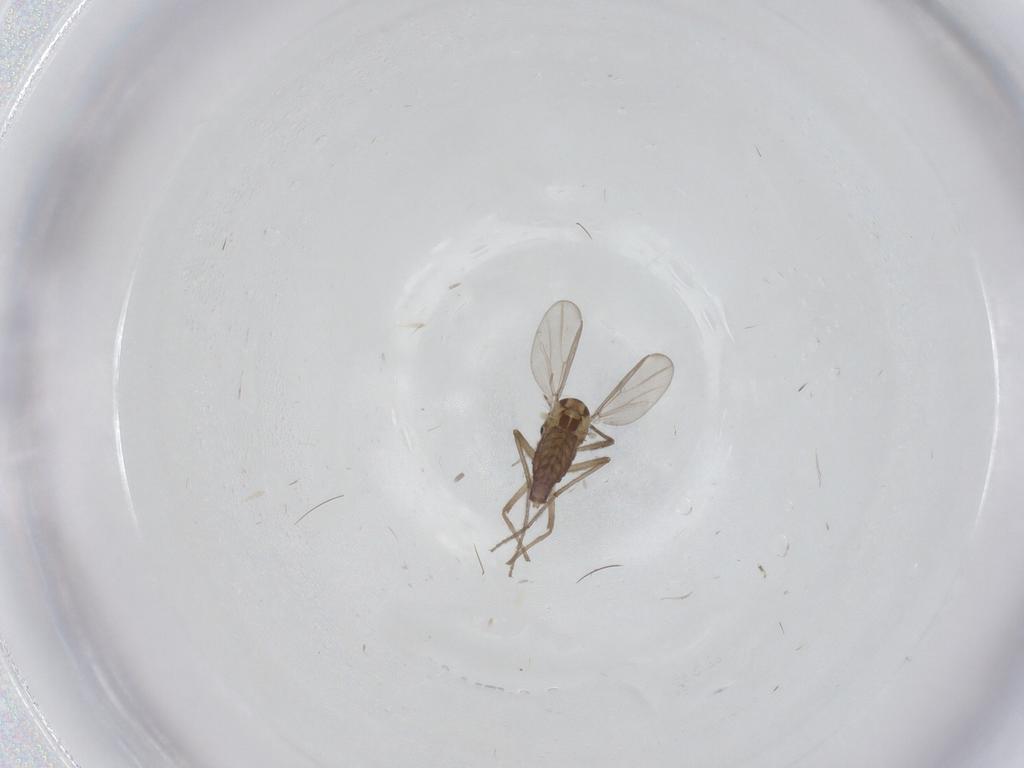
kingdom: Animalia
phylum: Arthropoda
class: Insecta
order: Diptera
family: Chironomidae
